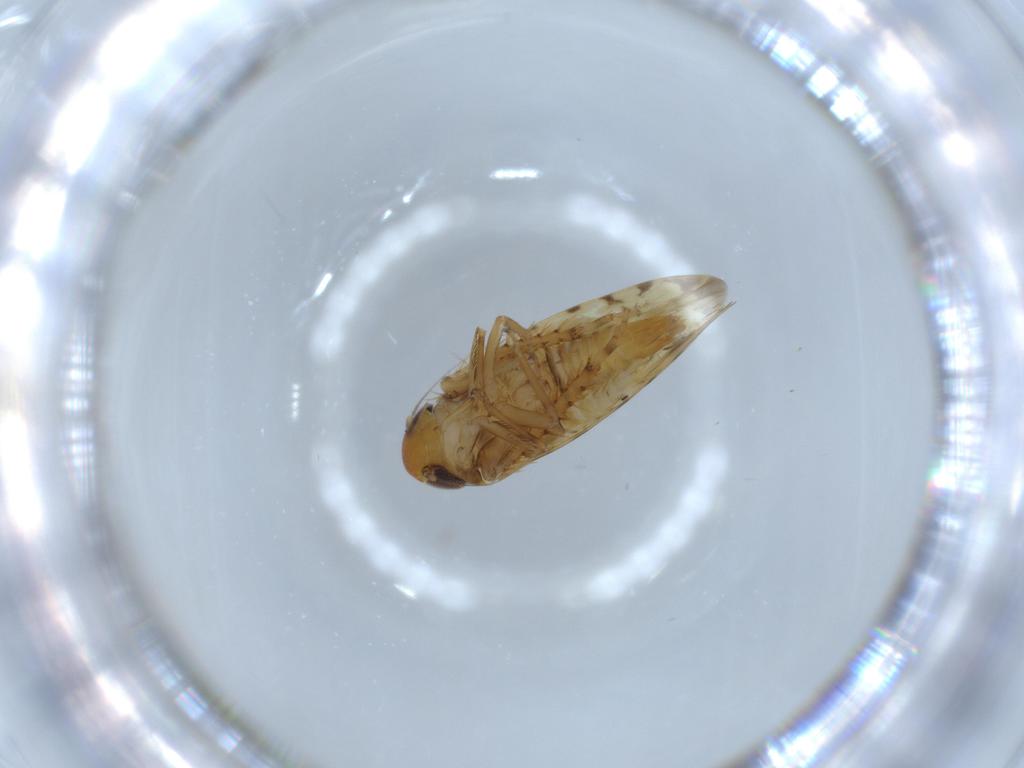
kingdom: Animalia
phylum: Arthropoda
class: Insecta
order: Hemiptera
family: Cicadellidae
